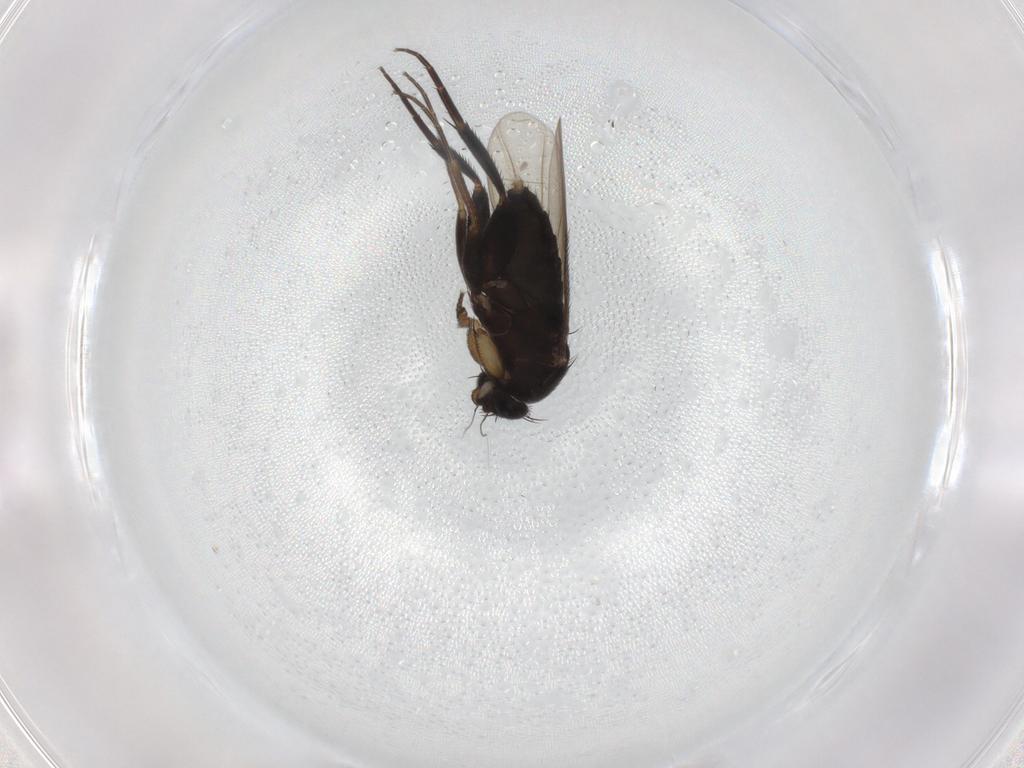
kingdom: Animalia
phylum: Arthropoda
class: Insecta
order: Diptera
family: Phoridae
